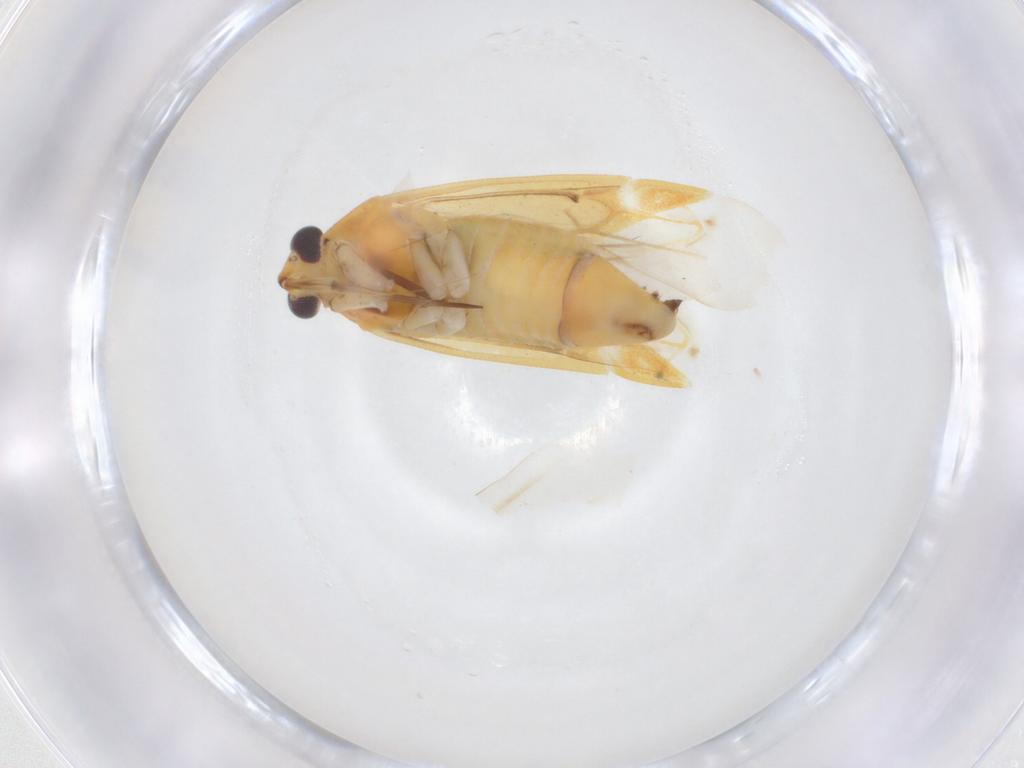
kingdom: Animalia
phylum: Arthropoda
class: Insecta
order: Hemiptera
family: Miridae
